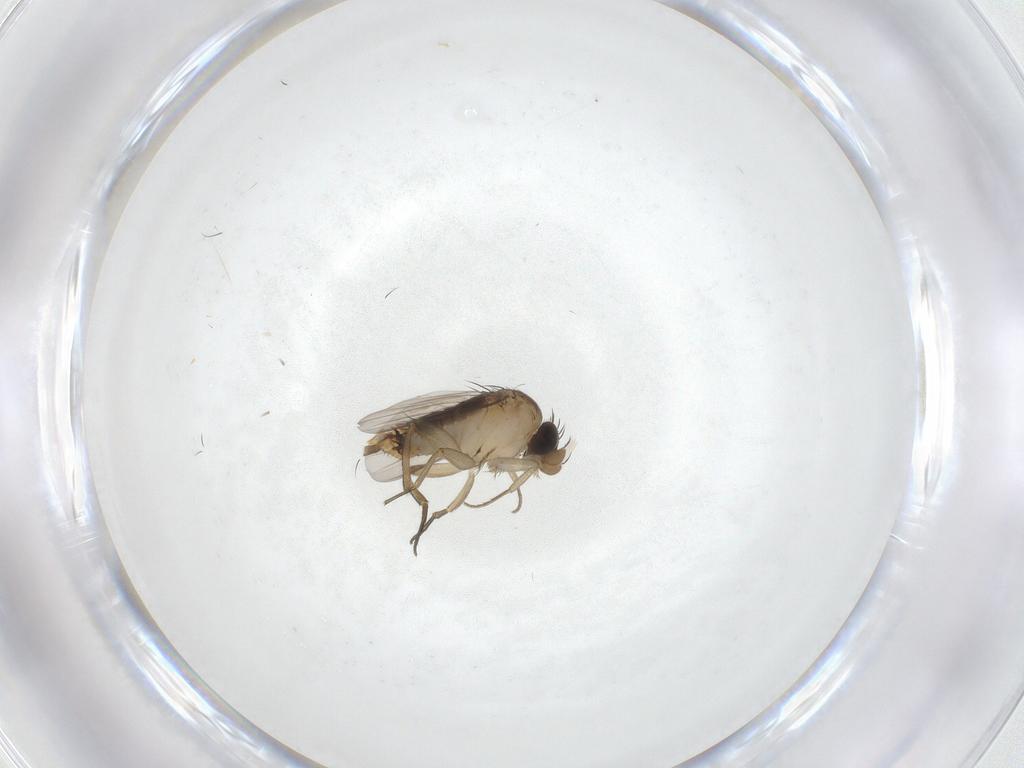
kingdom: Animalia
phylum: Arthropoda
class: Insecta
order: Diptera
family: Phoridae
